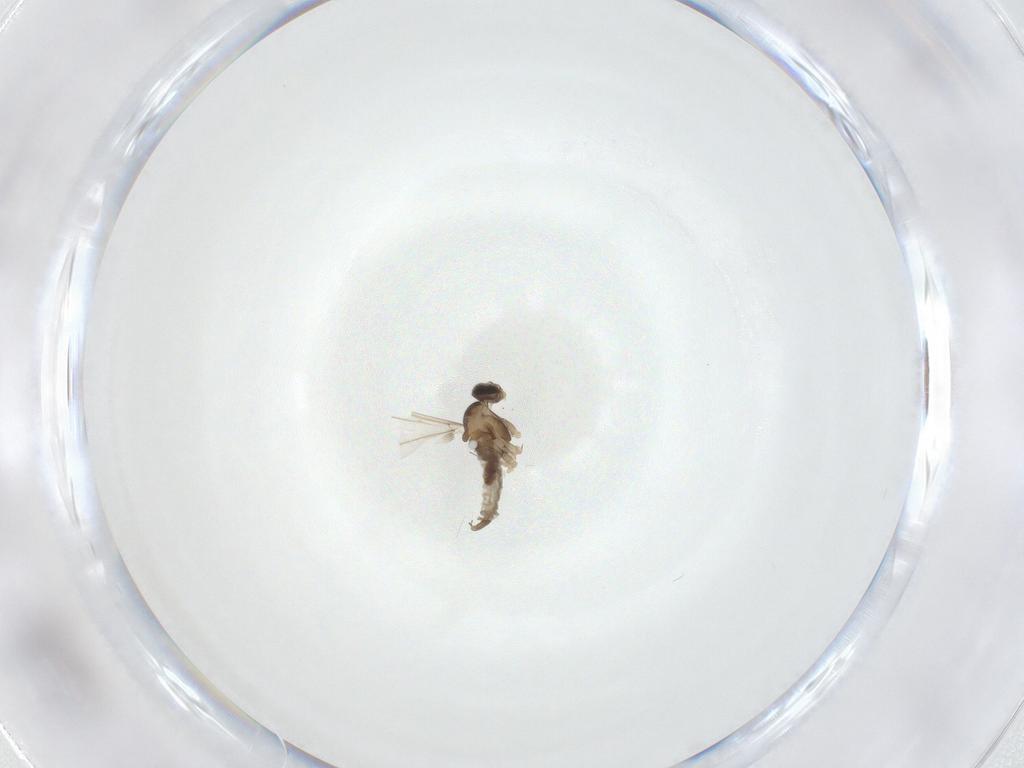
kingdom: Animalia
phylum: Arthropoda
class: Insecta
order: Diptera
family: Cecidomyiidae
